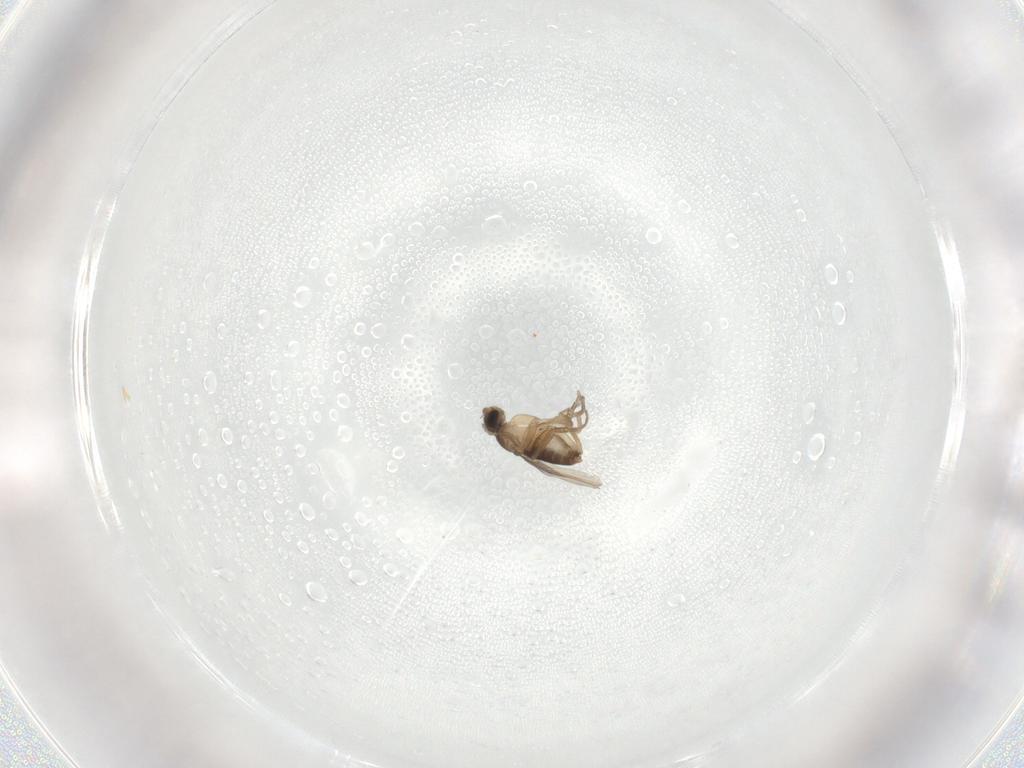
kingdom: Animalia
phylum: Arthropoda
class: Insecta
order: Diptera
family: Phoridae
